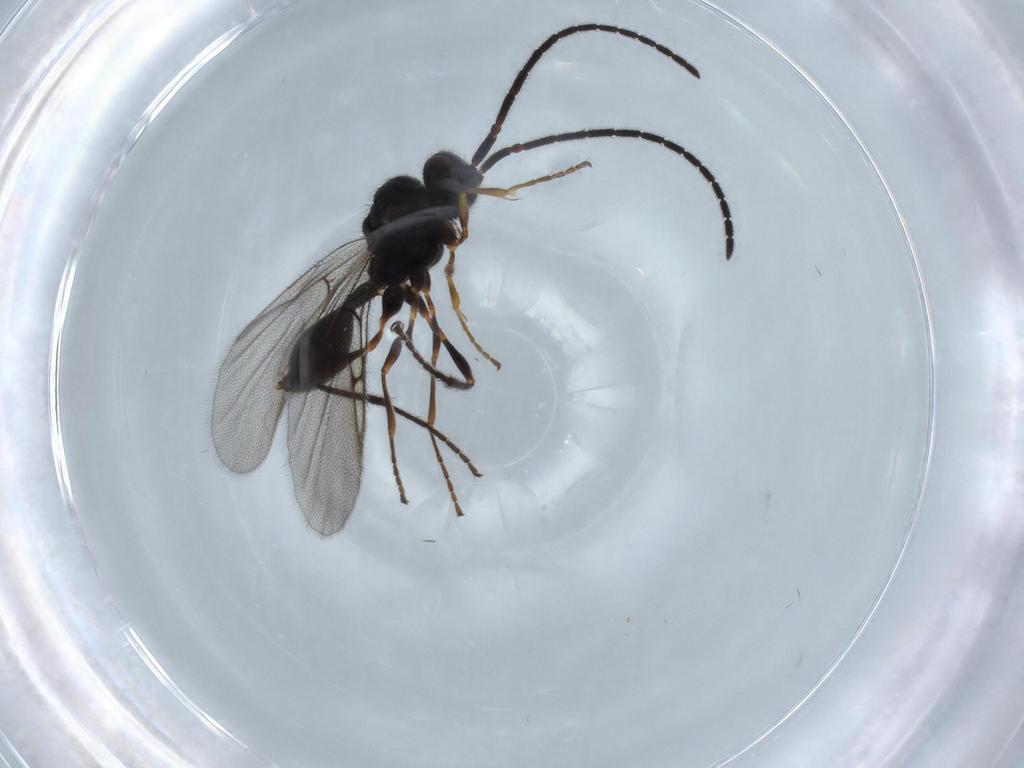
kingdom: Animalia
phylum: Arthropoda
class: Insecta
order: Hymenoptera
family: Diapriidae
